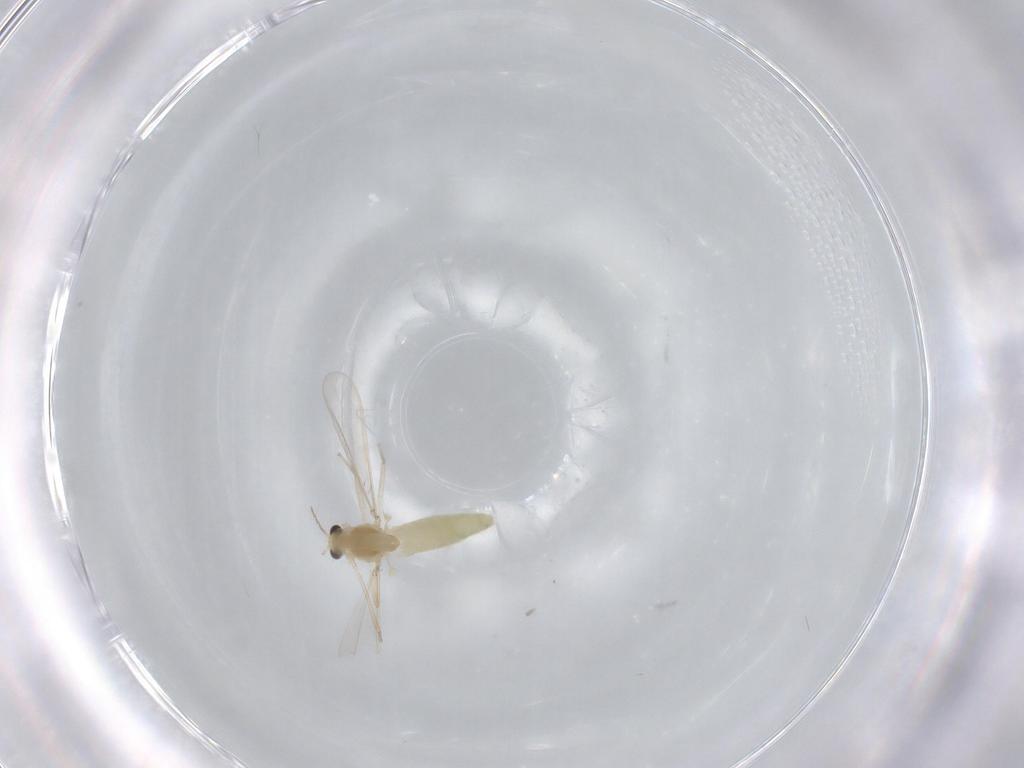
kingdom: Animalia
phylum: Arthropoda
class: Insecta
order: Diptera
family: Chironomidae
